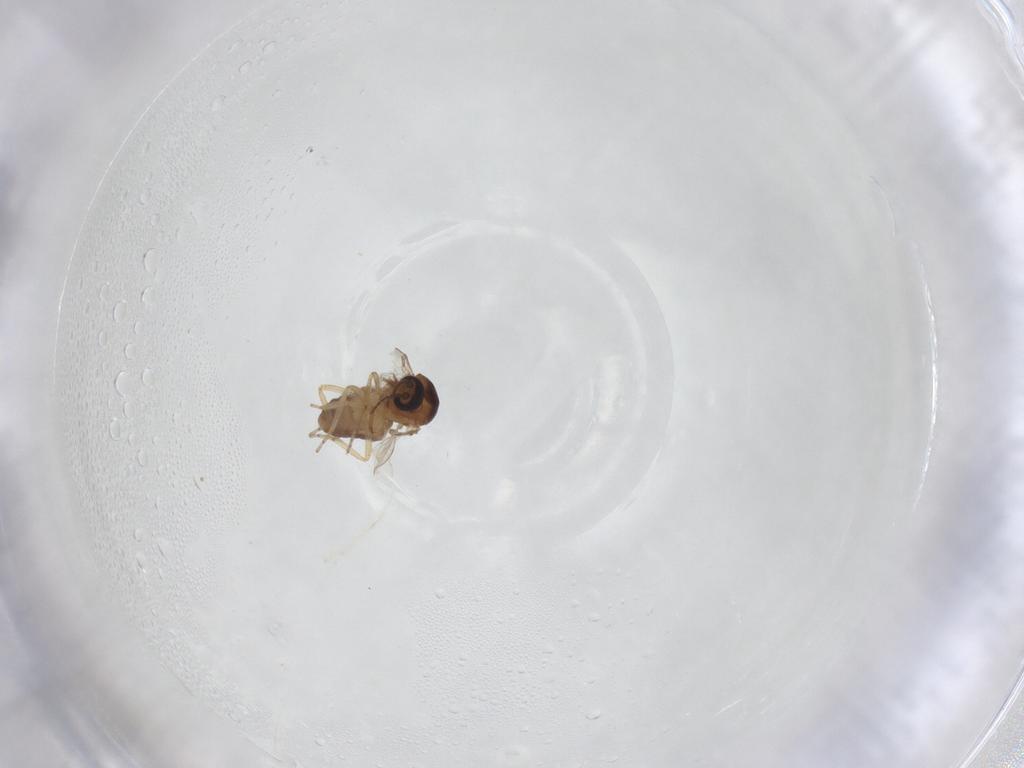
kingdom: Animalia
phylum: Arthropoda
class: Insecta
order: Diptera
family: Ceratopogonidae
